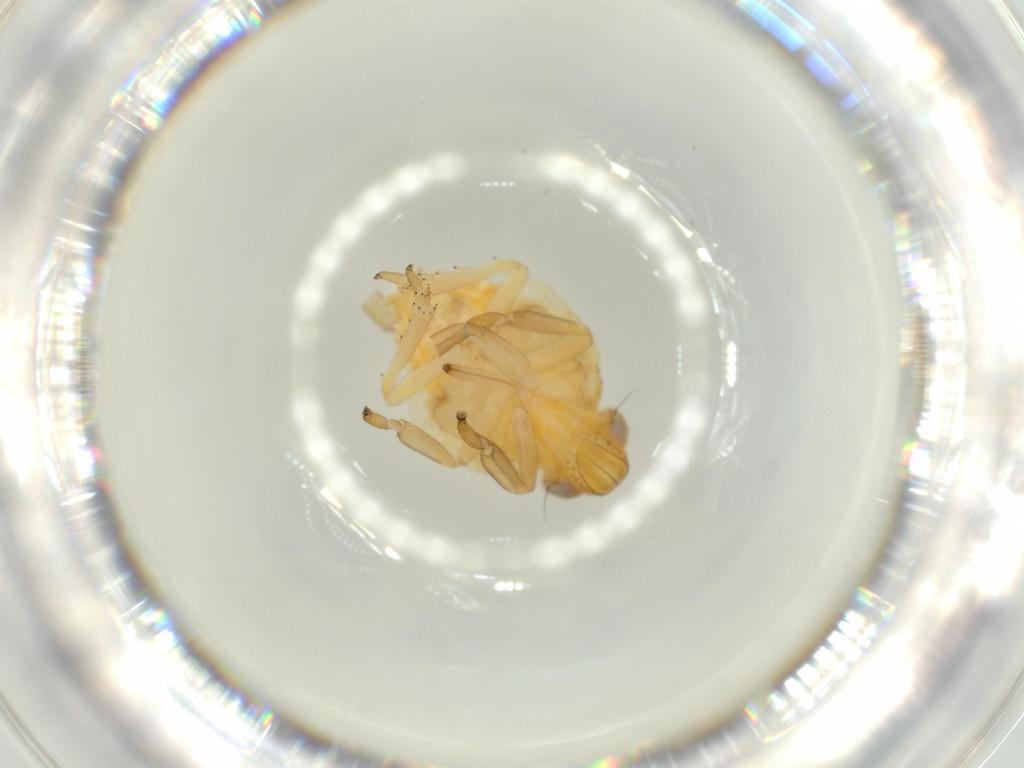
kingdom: Animalia
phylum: Arthropoda
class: Insecta
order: Hemiptera
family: Issidae
